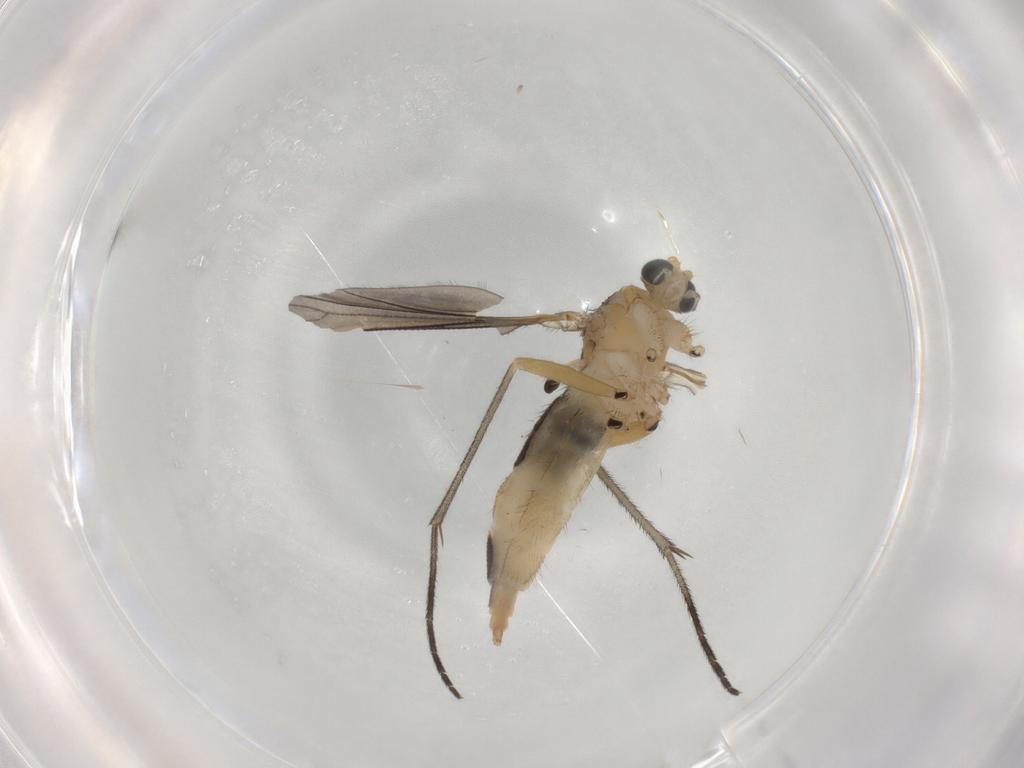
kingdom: Animalia
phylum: Arthropoda
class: Insecta
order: Diptera
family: Sciaridae
